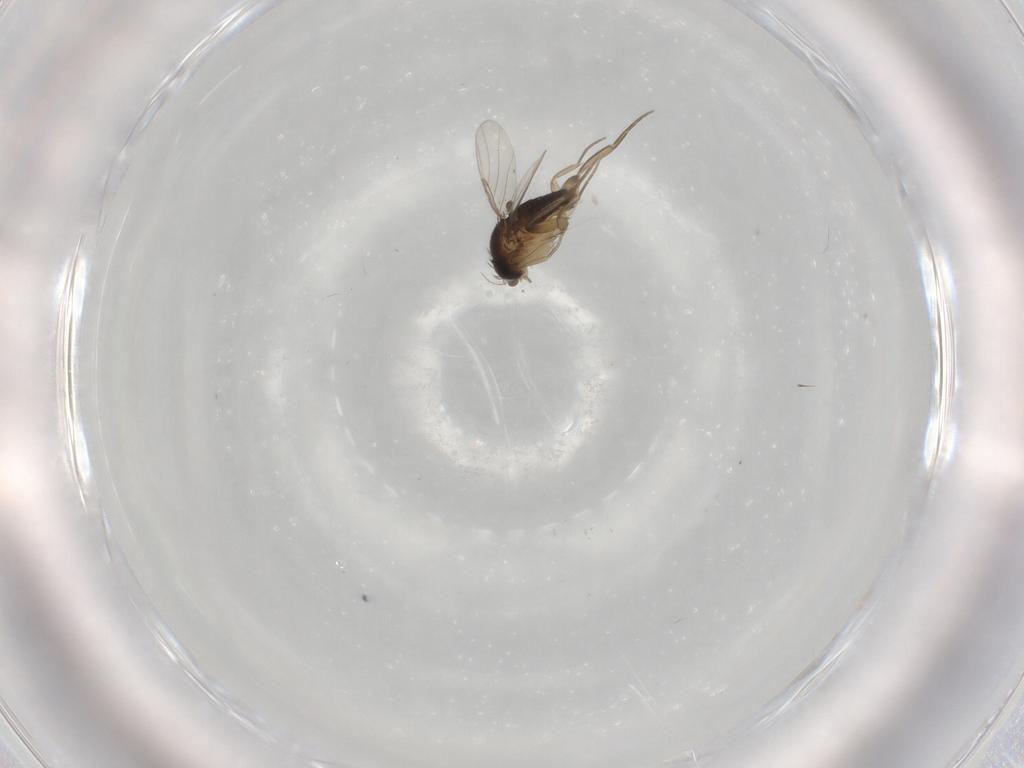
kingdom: Animalia
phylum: Arthropoda
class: Insecta
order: Diptera
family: Phoridae
